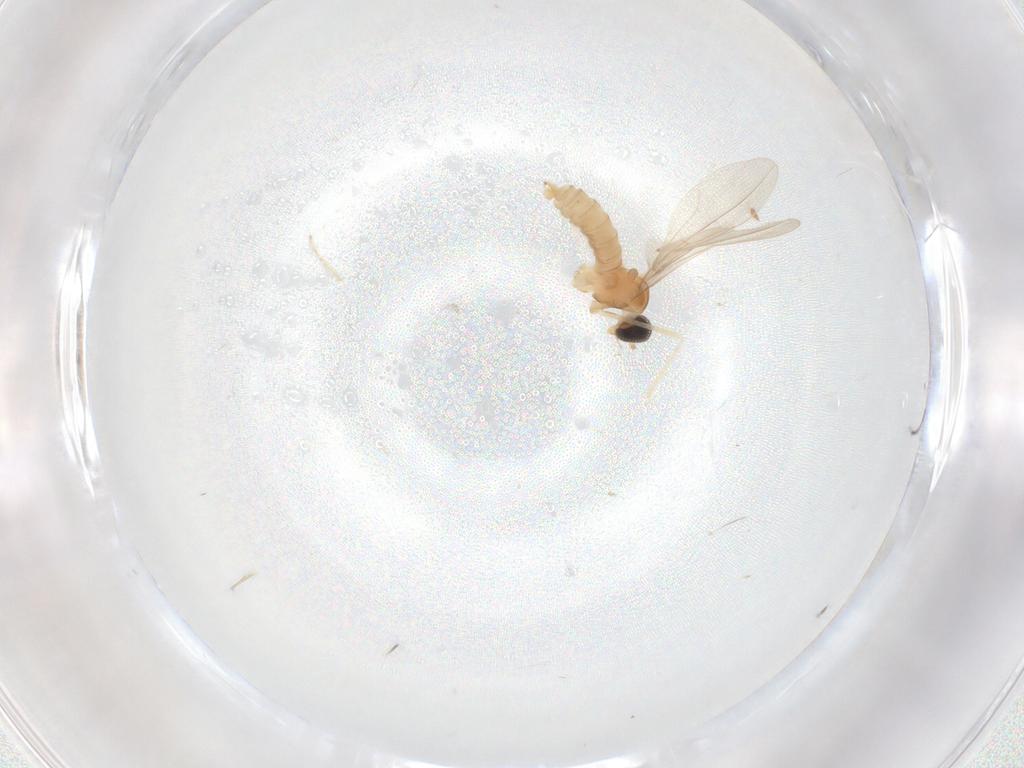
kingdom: Animalia
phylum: Arthropoda
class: Insecta
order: Diptera
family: Cecidomyiidae
